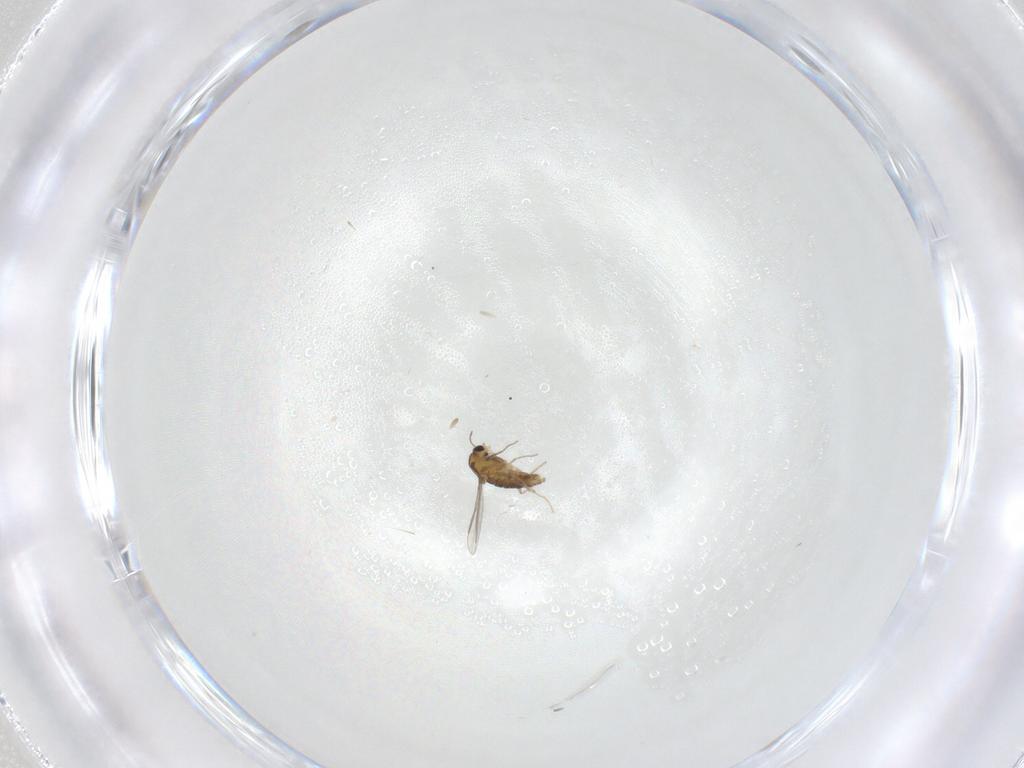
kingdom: Animalia
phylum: Arthropoda
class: Insecta
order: Diptera
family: Chironomidae
